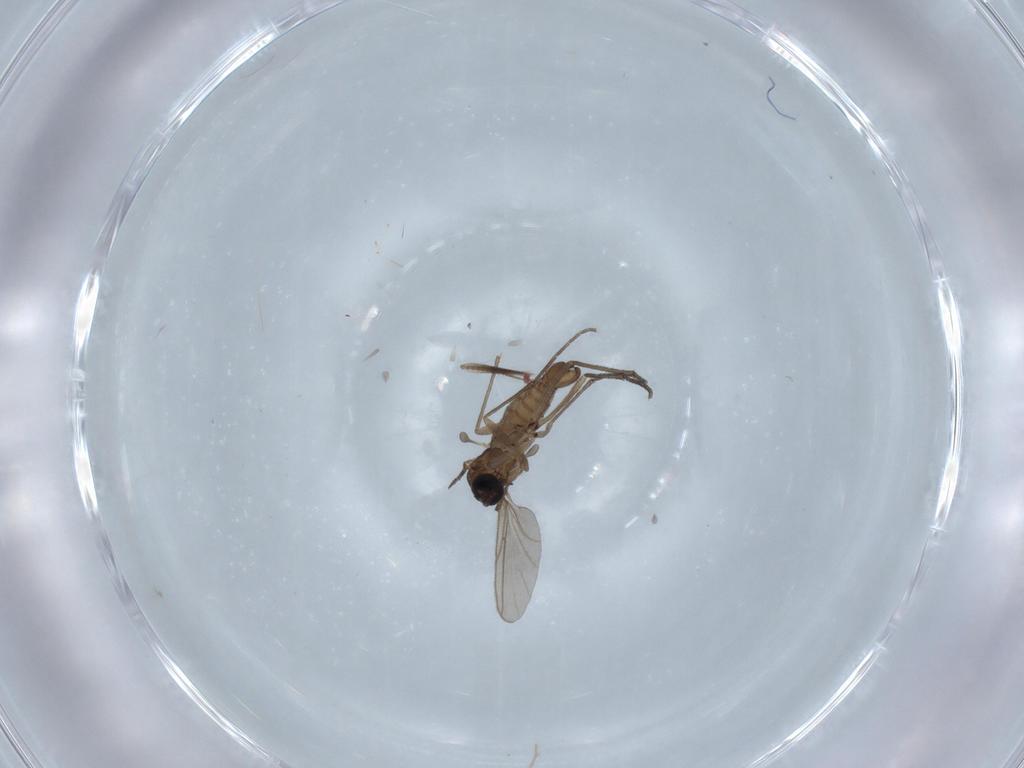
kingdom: Animalia
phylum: Arthropoda
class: Insecta
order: Diptera
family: Ceratopogonidae
